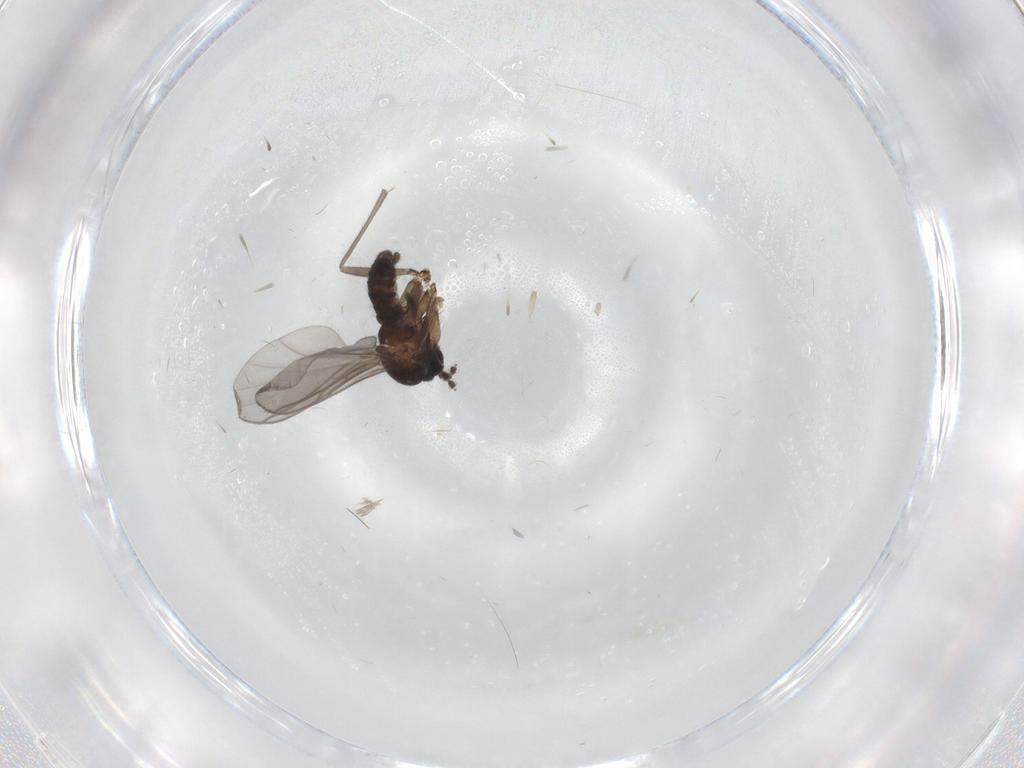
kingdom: Animalia
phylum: Arthropoda
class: Insecta
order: Diptera
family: Sciaridae
